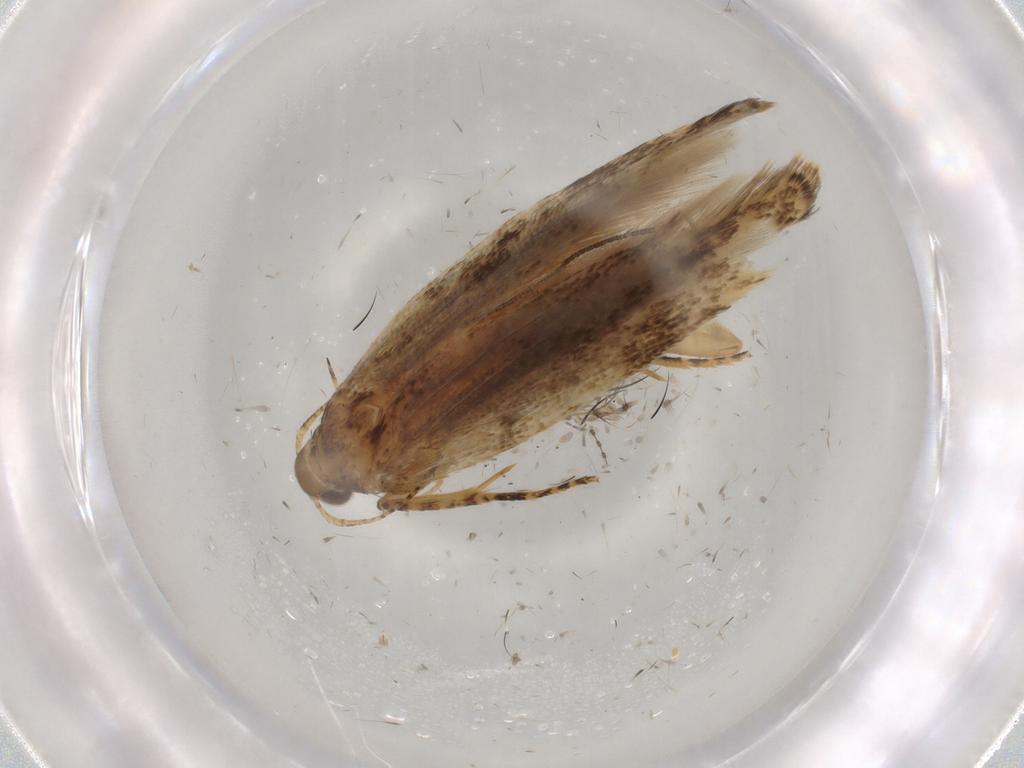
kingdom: Animalia
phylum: Arthropoda
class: Insecta
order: Lepidoptera
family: Gelechiidae
